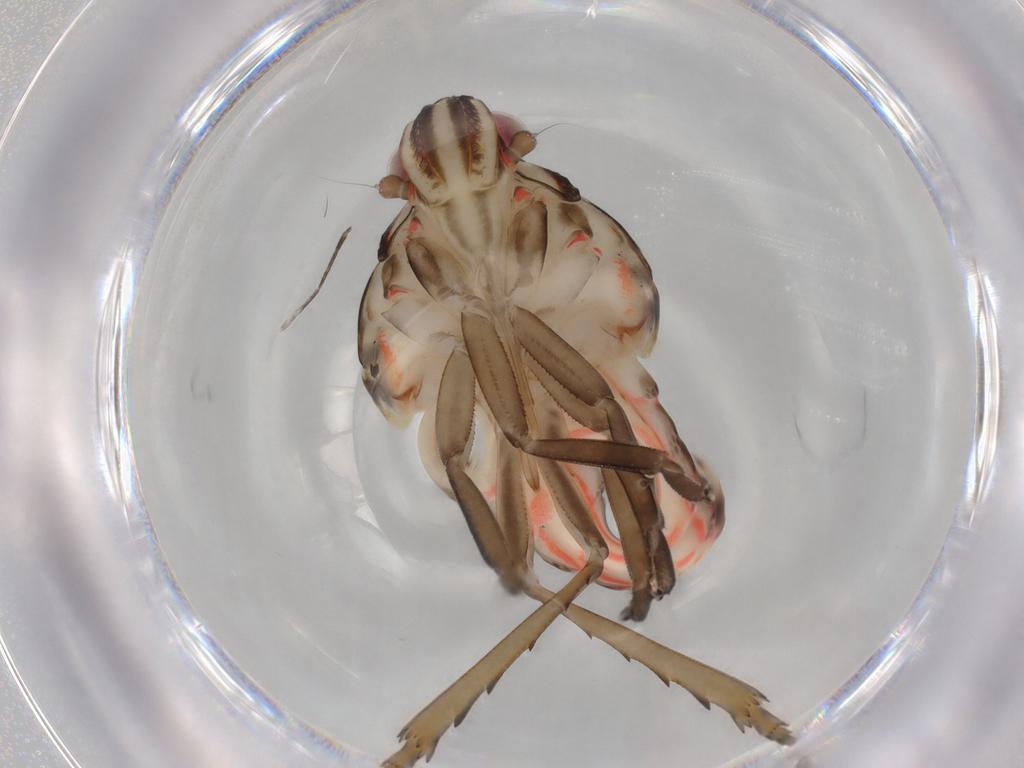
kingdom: Animalia
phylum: Arthropoda
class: Insecta
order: Hemiptera
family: Nogodinidae
